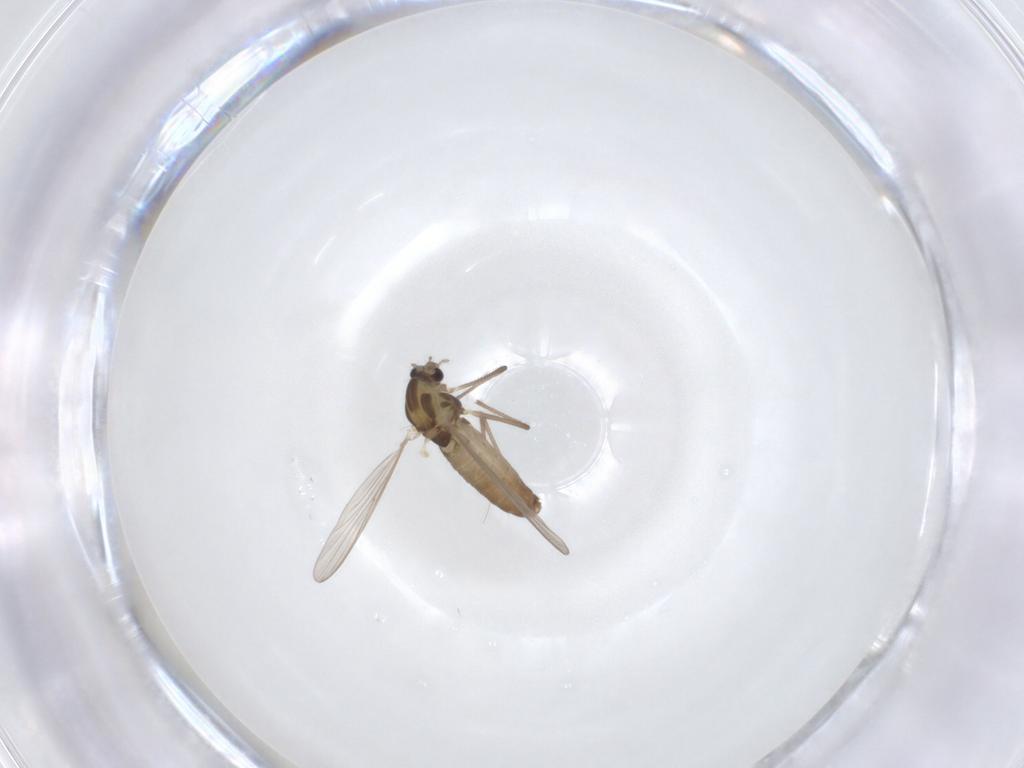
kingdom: Animalia
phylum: Arthropoda
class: Insecta
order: Diptera
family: Chironomidae
